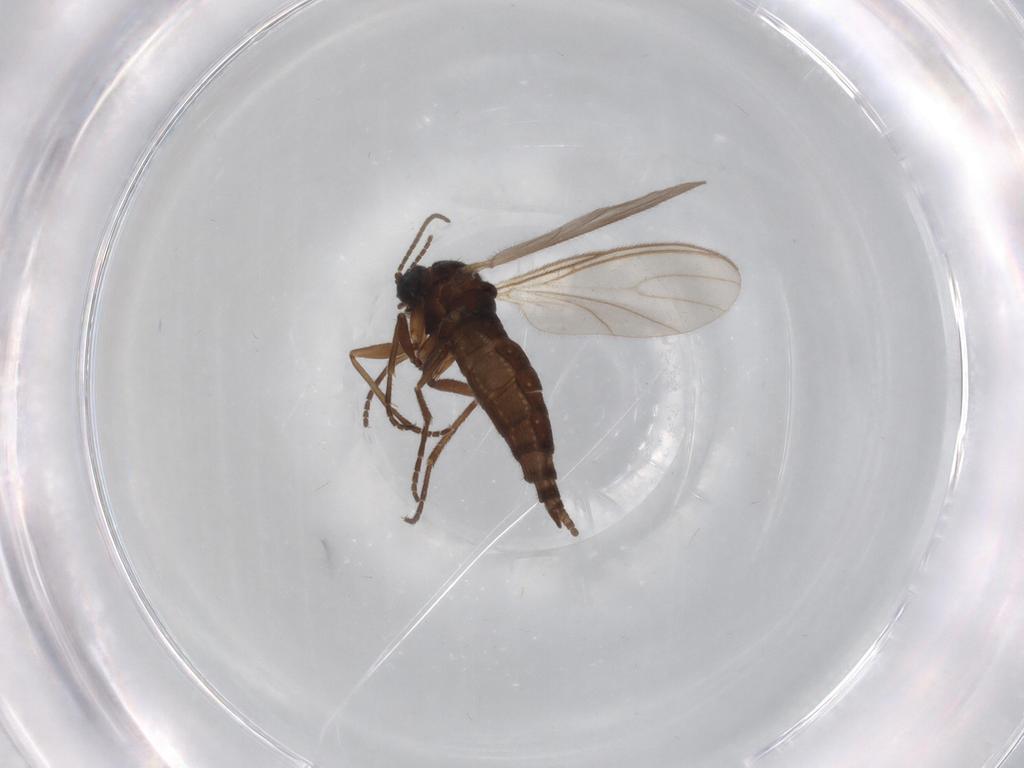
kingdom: Animalia
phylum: Arthropoda
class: Insecta
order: Diptera
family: Sciaridae
